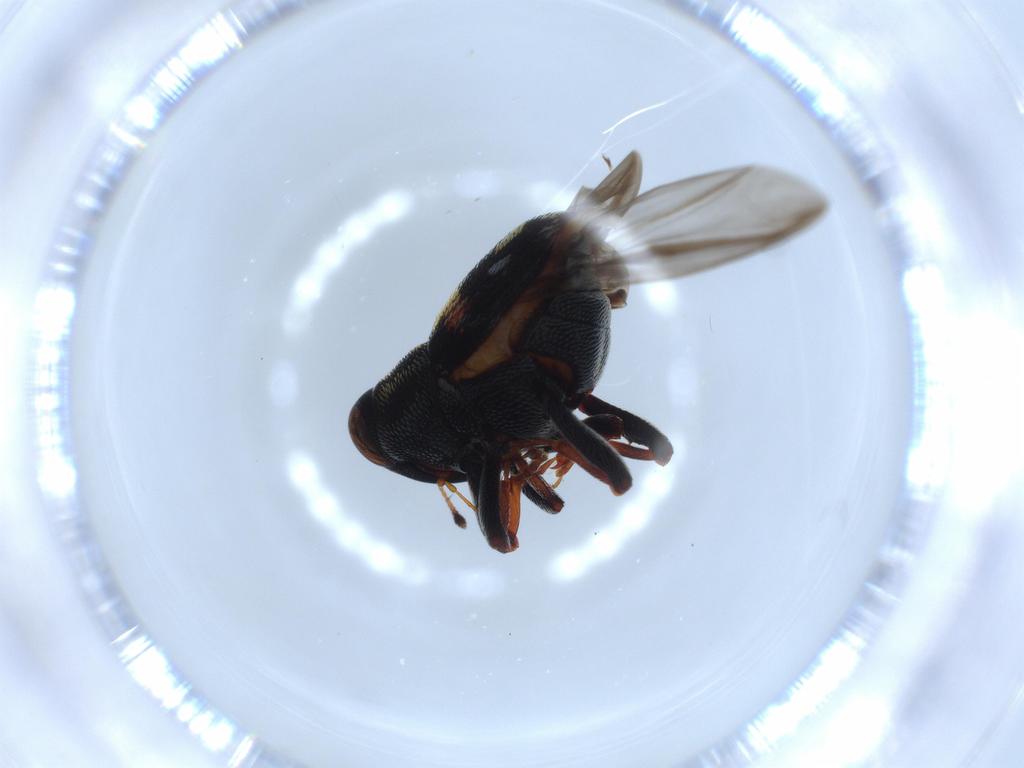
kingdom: Animalia
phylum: Arthropoda
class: Insecta
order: Coleoptera
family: Curculionidae
